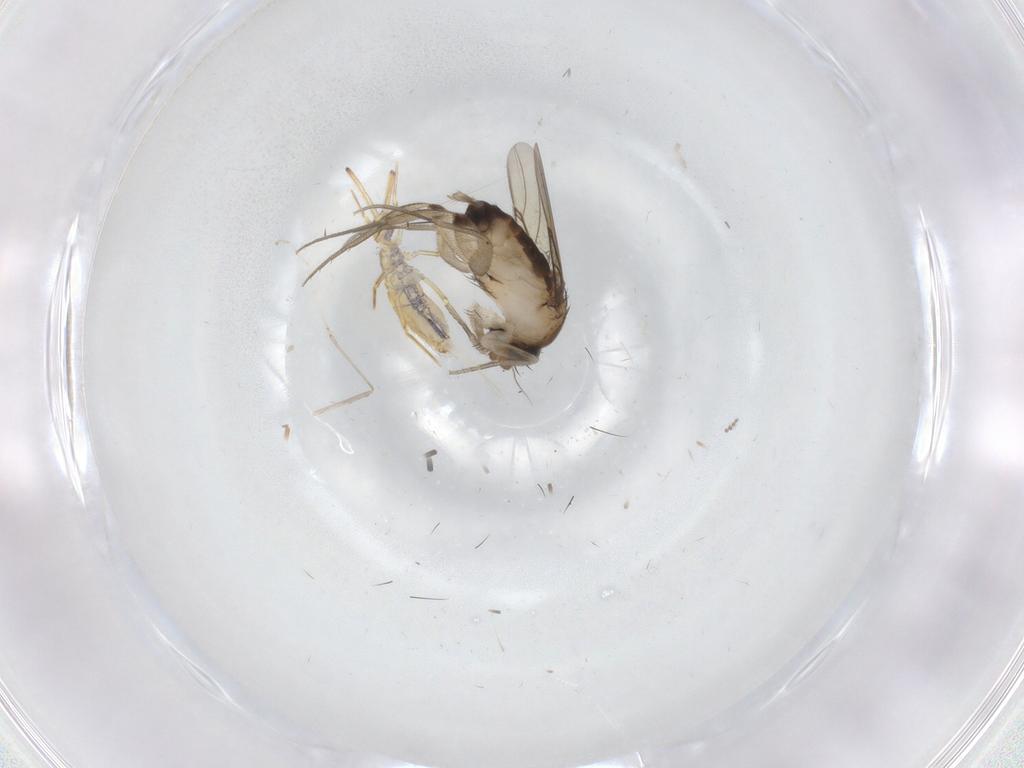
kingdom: Animalia
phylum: Arthropoda
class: Insecta
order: Diptera
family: Phoridae
